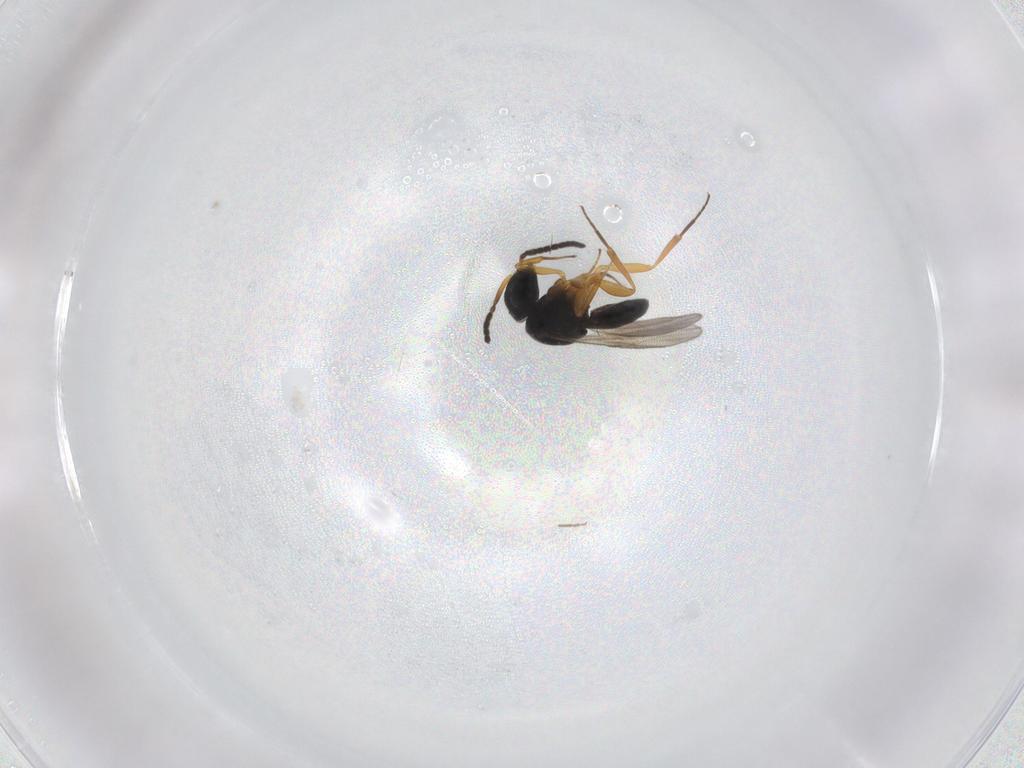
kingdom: Animalia
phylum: Arthropoda
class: Insecta
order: Hymenoptera
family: Scelionidae
